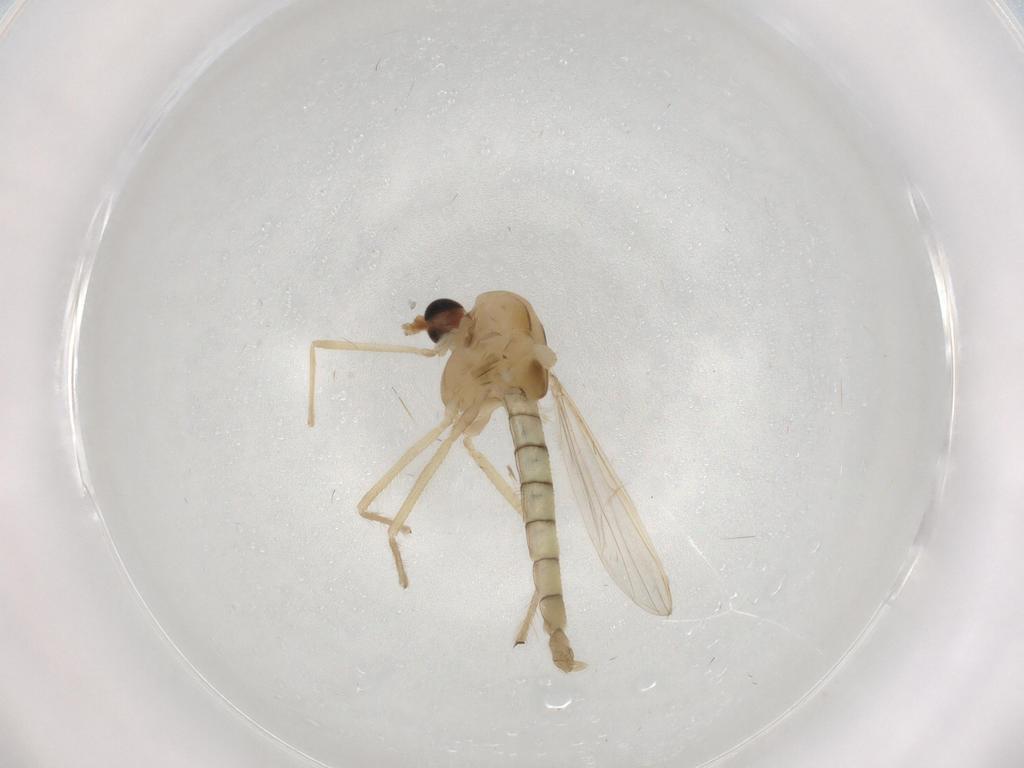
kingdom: Animalia
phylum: Arthropoda
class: Insecta
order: Diptera
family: Chironomidae
